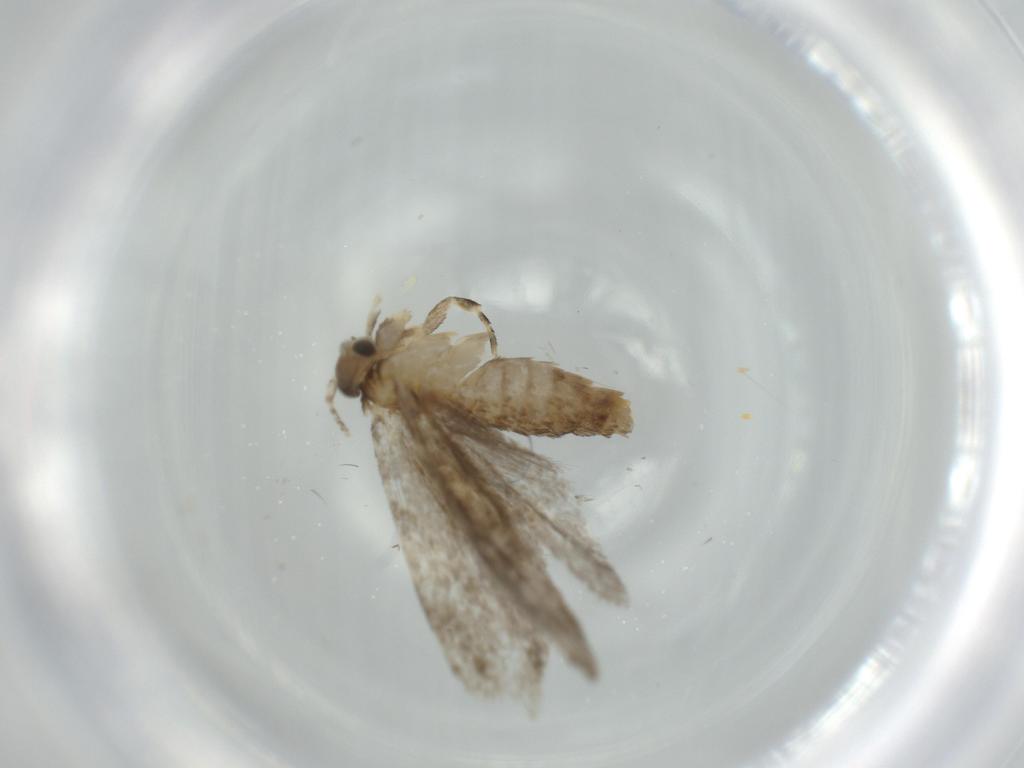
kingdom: Animalia
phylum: Arthropoda
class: Insecta
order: Lepidoptera
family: Tineidae
